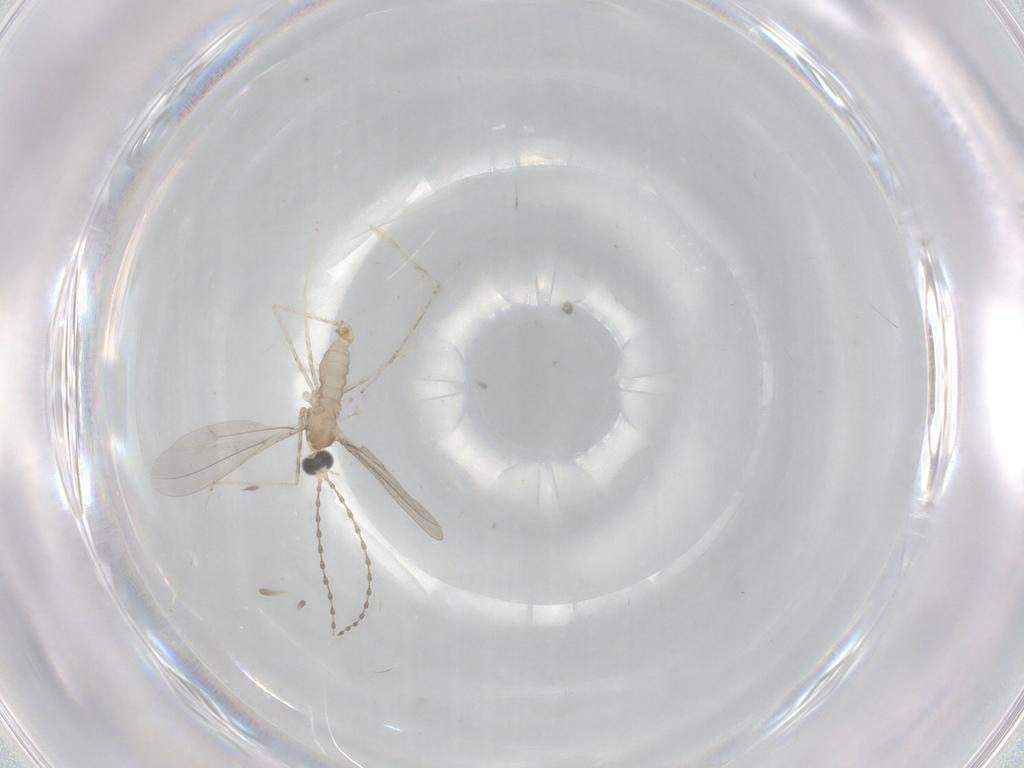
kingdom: Animalia
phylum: Arthropoda
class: Insecta
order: Diptera
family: Cecidomyiidae
